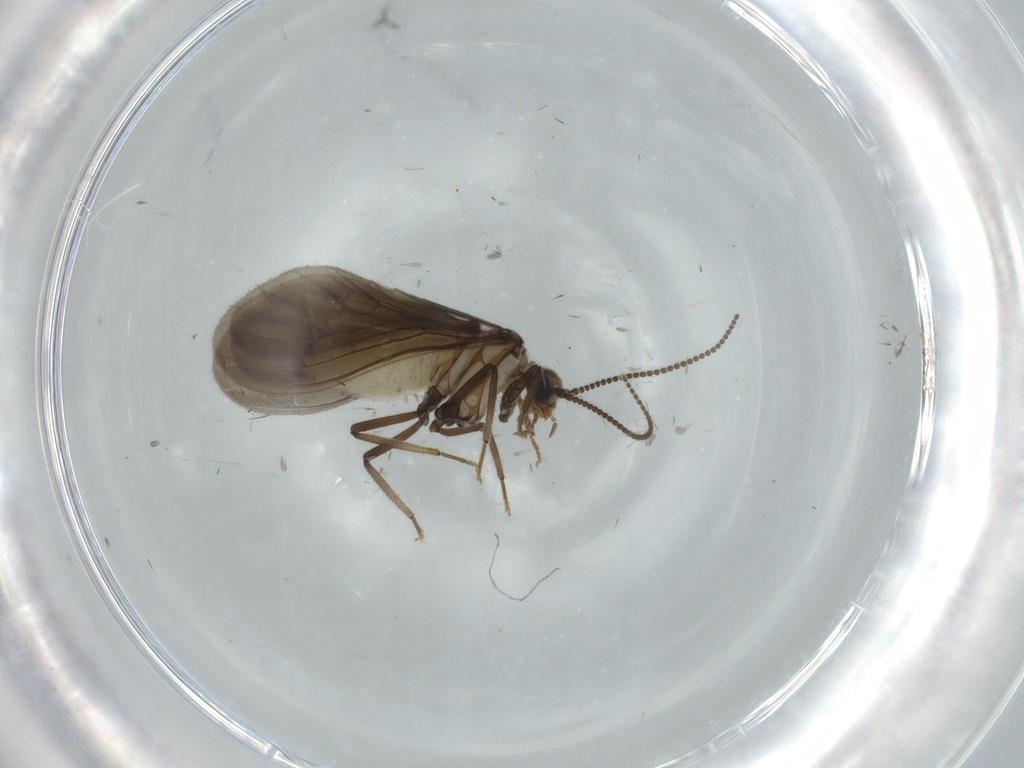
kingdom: Animalia
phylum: Arthropoda
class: Insecta
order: Neuroptera
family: Coniopterygidae
